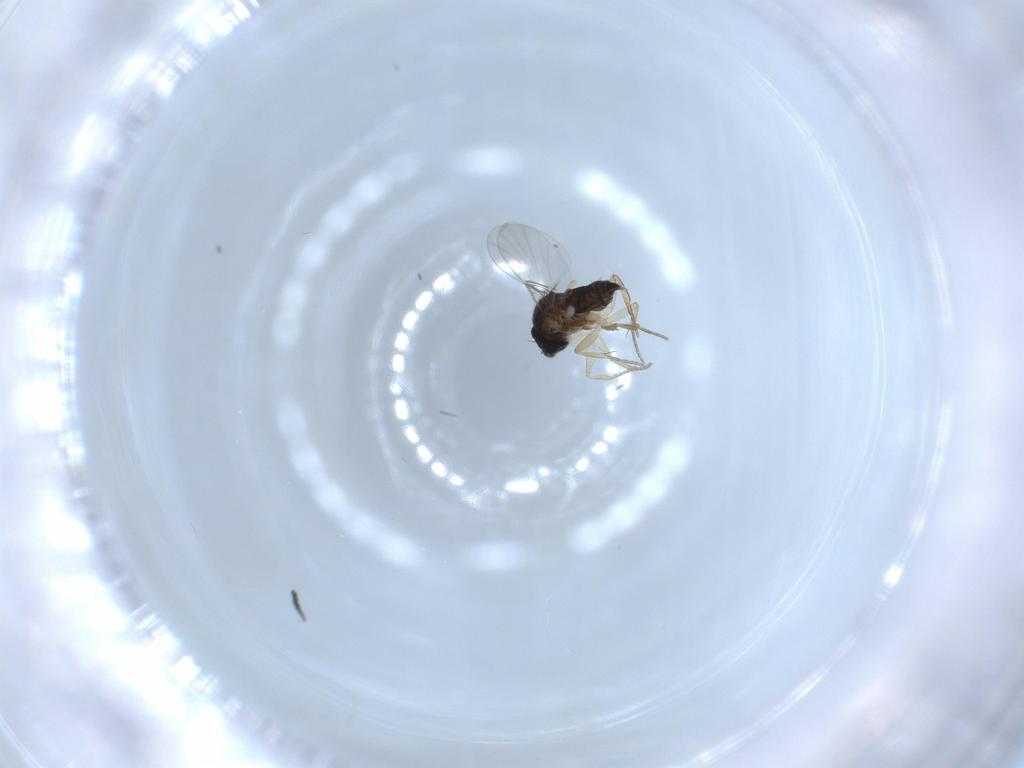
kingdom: Animalia
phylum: Arthropoda
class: Insecta
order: Diptera
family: Phoridae
